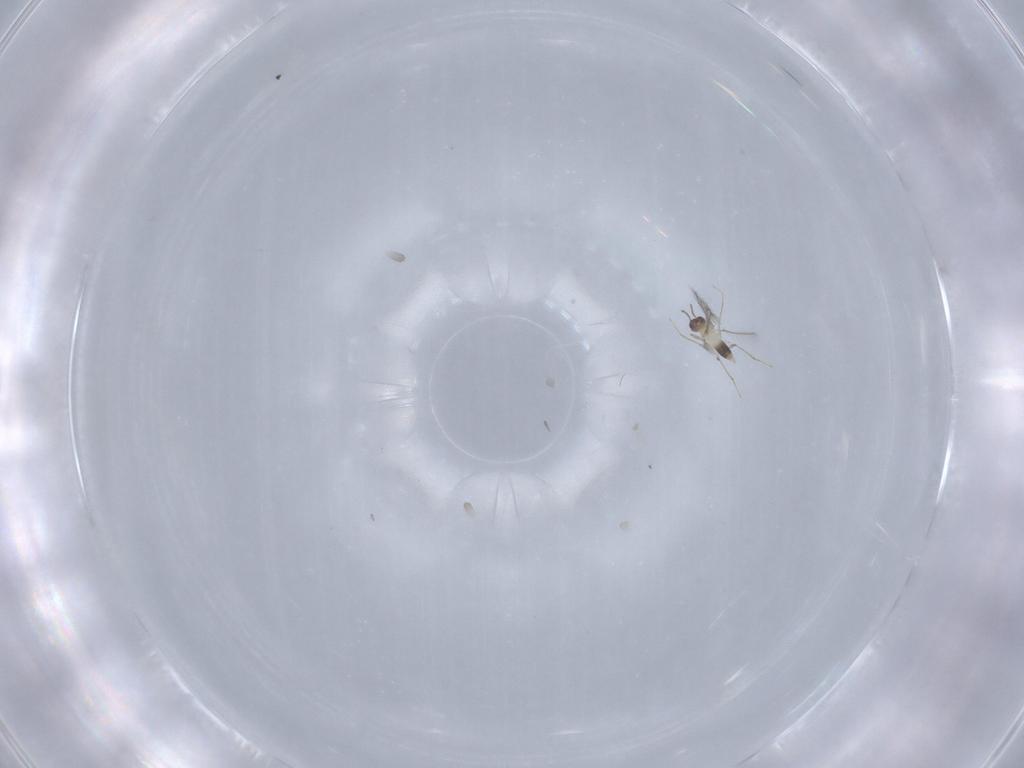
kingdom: Animalia
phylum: Arthropoda
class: Insecta
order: Hymenoptera
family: Mymaridae
